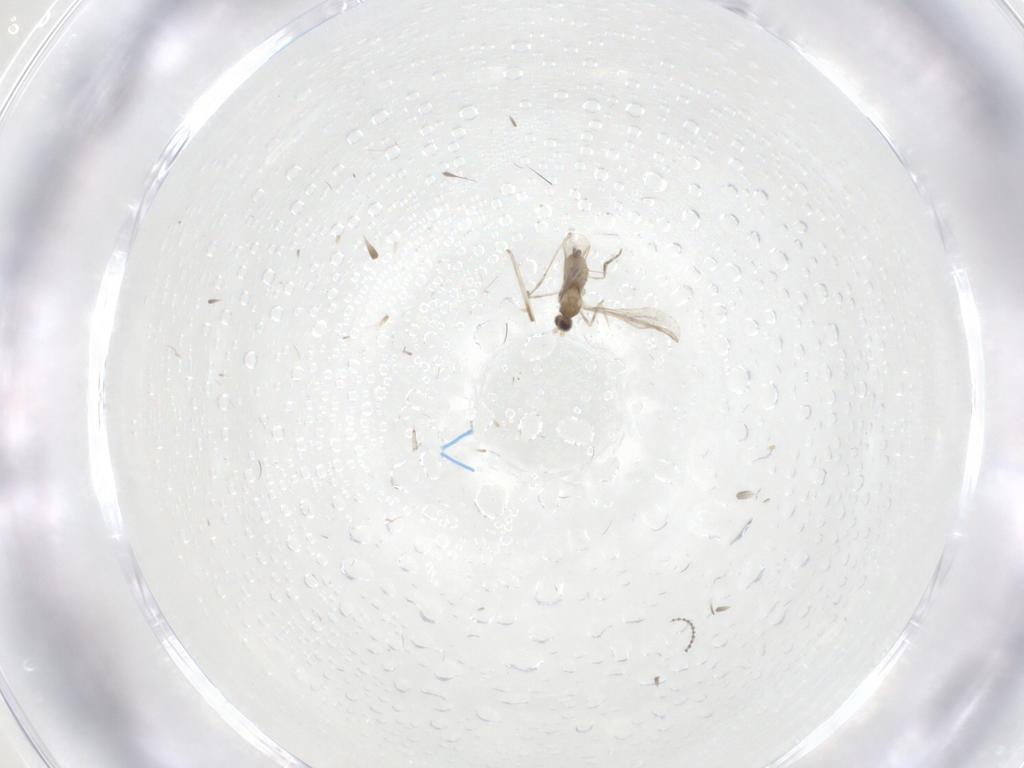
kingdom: Animalia
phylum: Arthropoda
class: Insecta
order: Diptera
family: Cecidomyiidae
